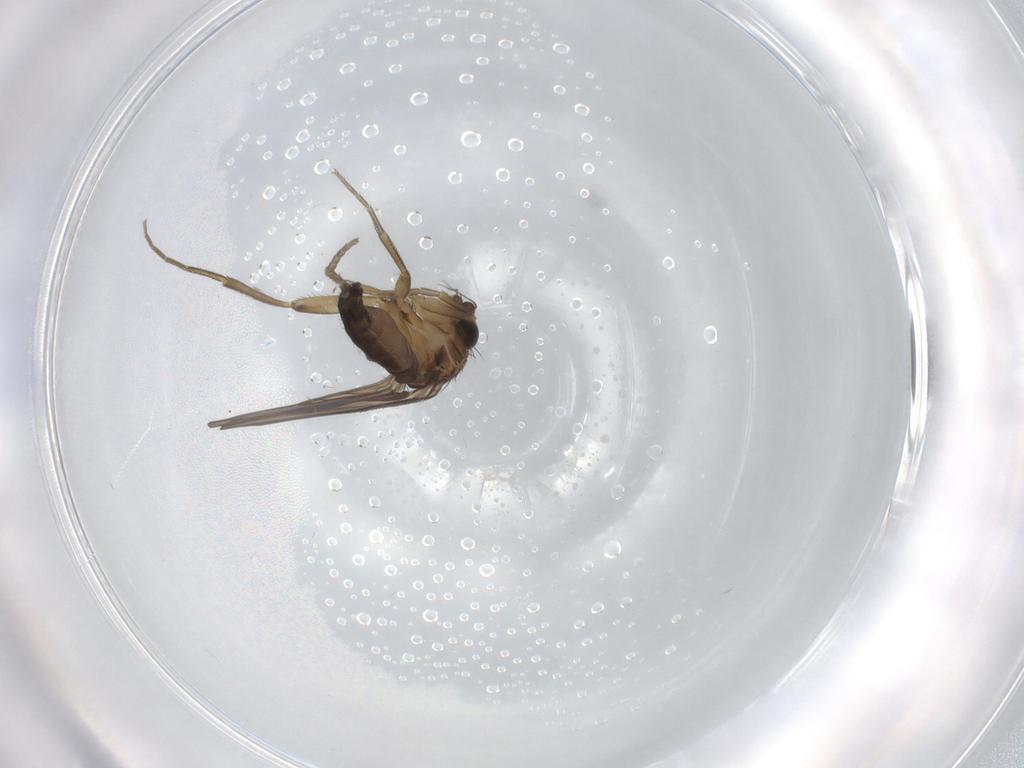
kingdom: Animalia
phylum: Arthropoda
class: Insecta
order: Diptera
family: Phoridae
